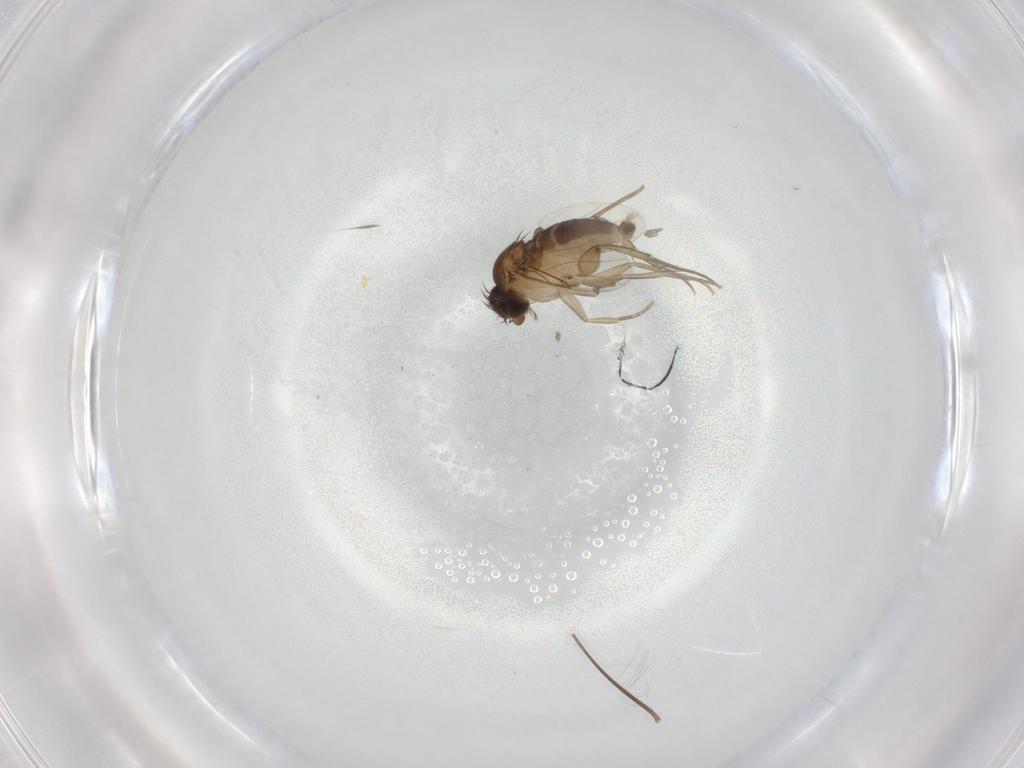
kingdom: Animalia
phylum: Arthropoda
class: Insecta
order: Diptera
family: Phoridae
